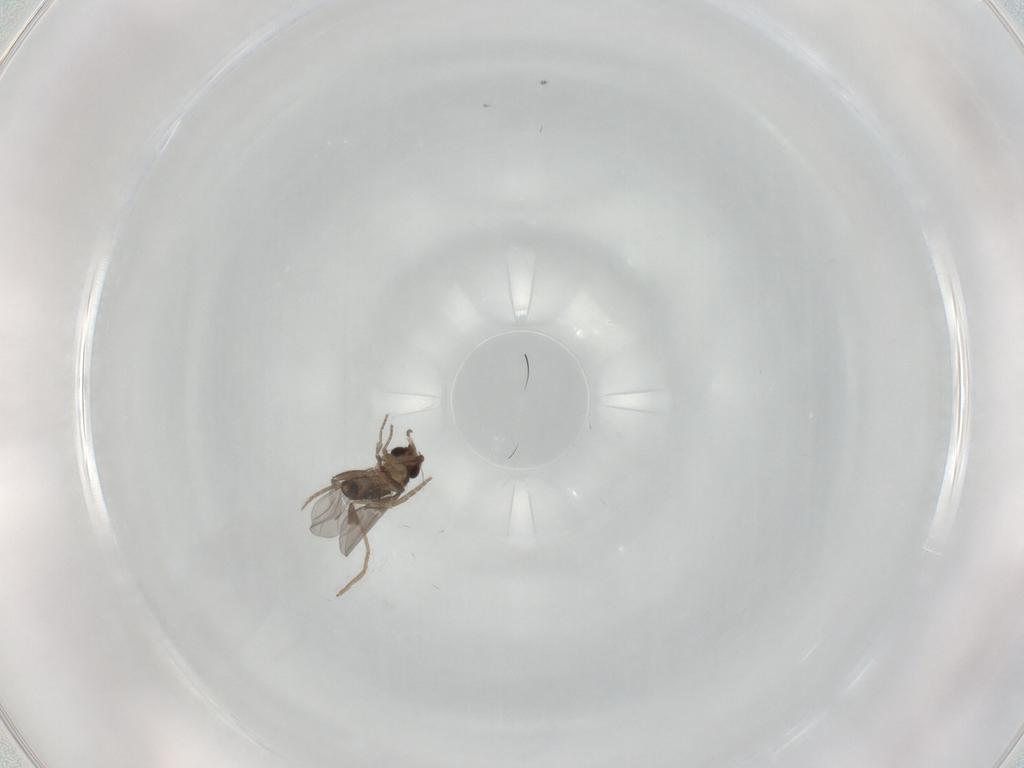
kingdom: Animalia
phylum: Arthropoda
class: Insecta
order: Diptera
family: Chironomidae
